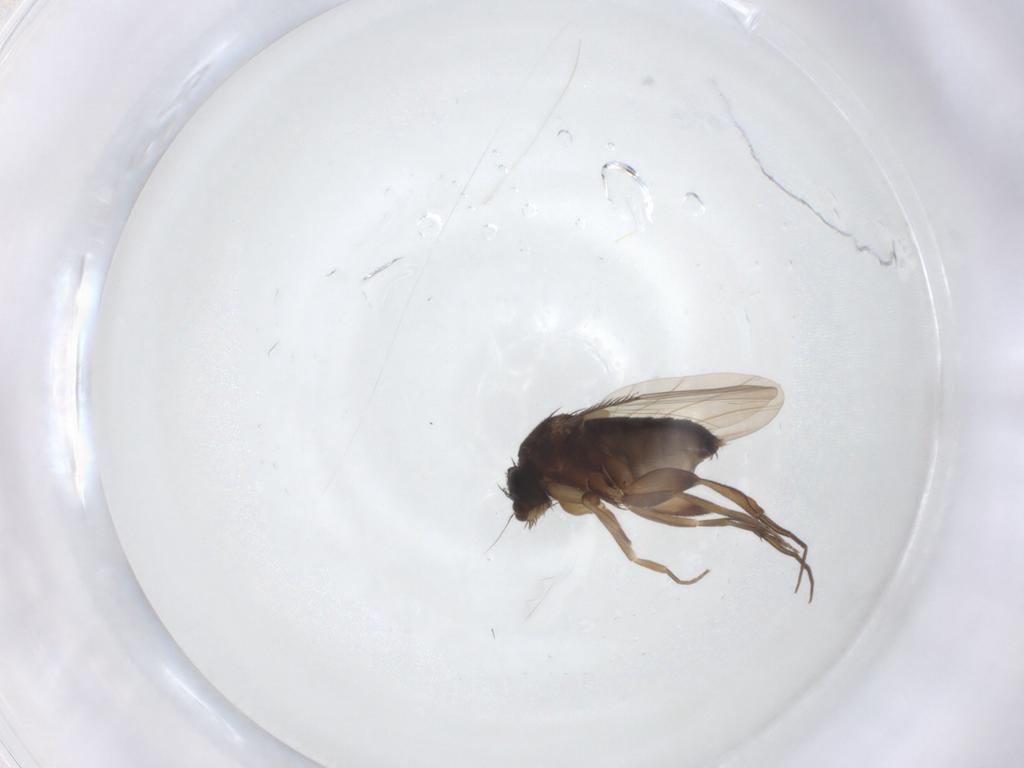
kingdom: Animalia
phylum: Arthropoda
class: Insecta
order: Diptera
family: Phoridae
